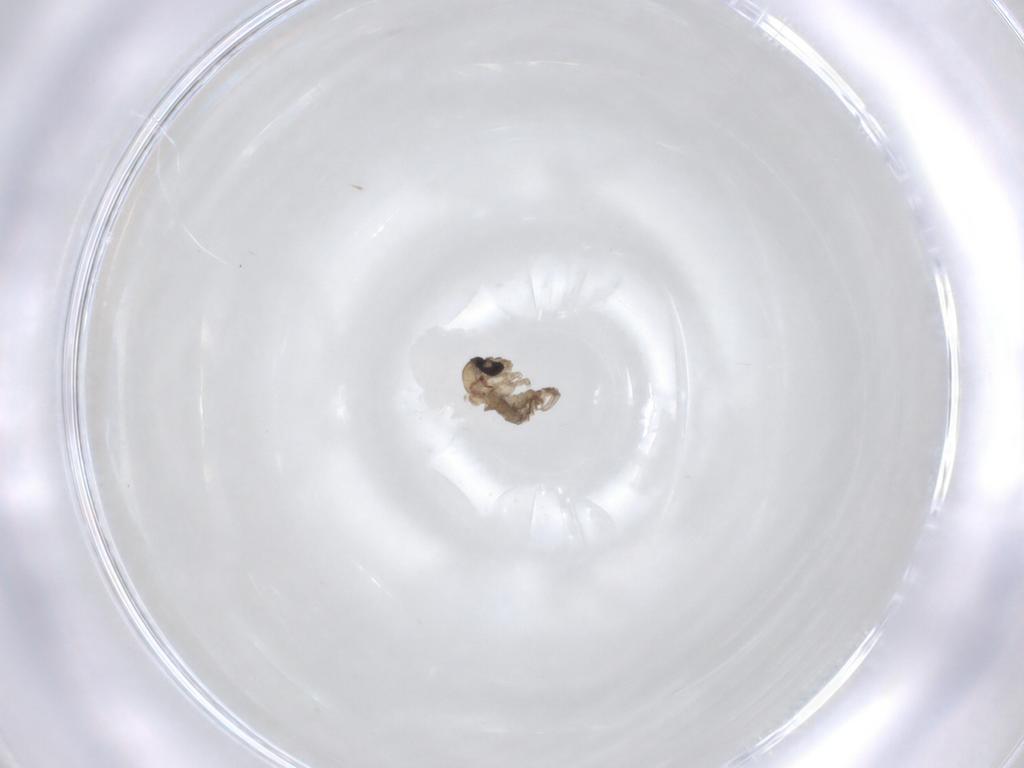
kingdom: Animalia
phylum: Arthropoda
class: Insecta
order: Diptera
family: Psychodidae
